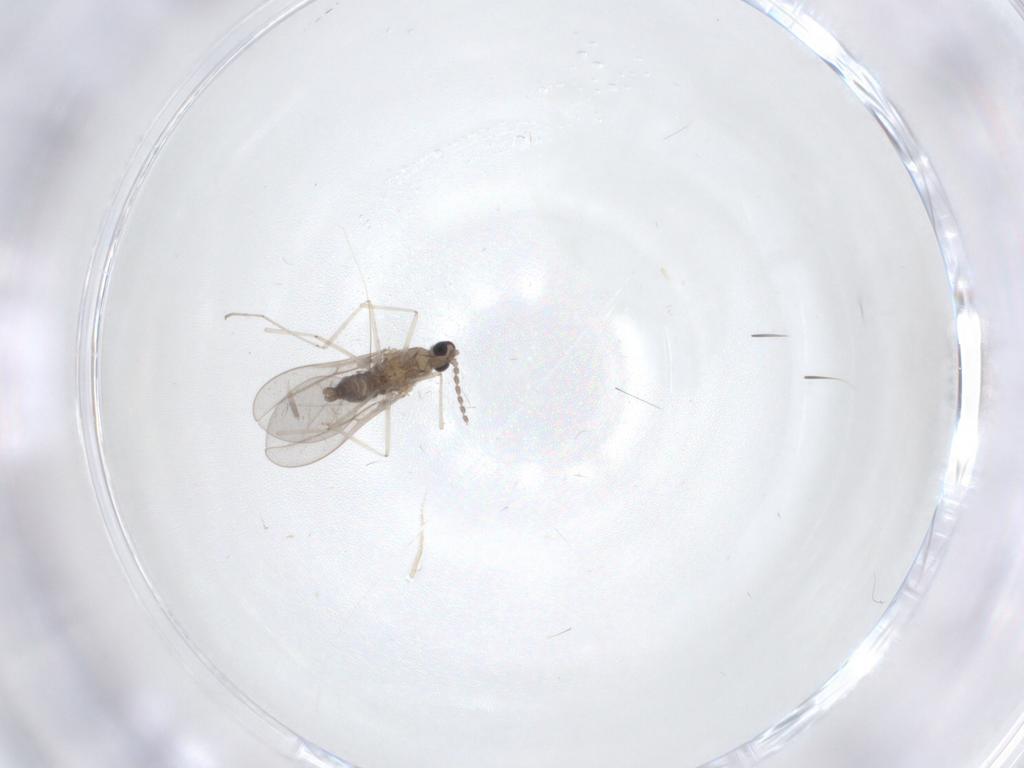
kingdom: Animalia
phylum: Arthropoda
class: Insecta
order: Diptera
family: Cecidomyiidae
